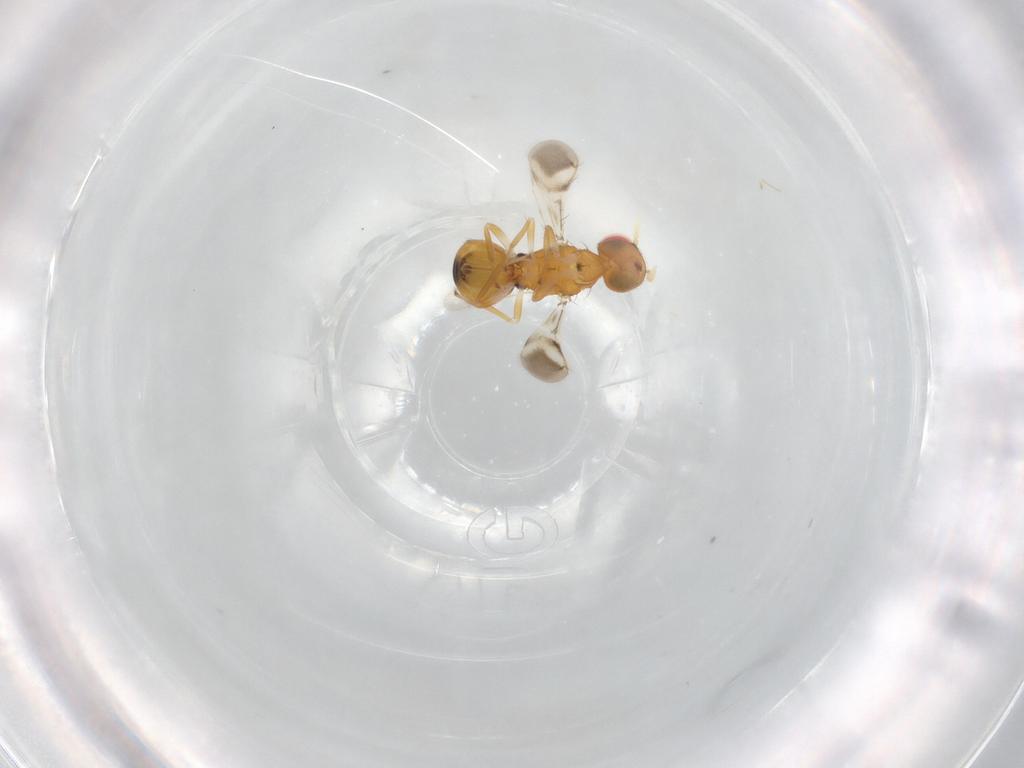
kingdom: Animalia
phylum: Arthropoda
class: Insecta
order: Hymenoptera
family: Eulophidae
